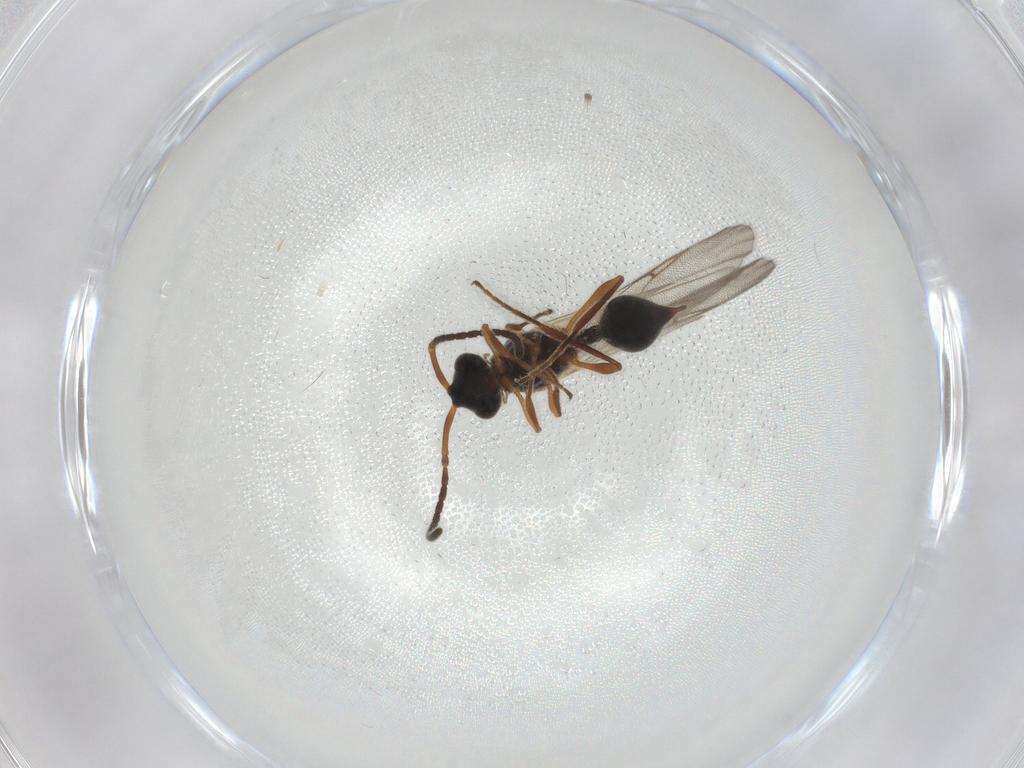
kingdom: Animalia
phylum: Arthropoda
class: Insecta
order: Hymenoptera
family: Diapriidae
